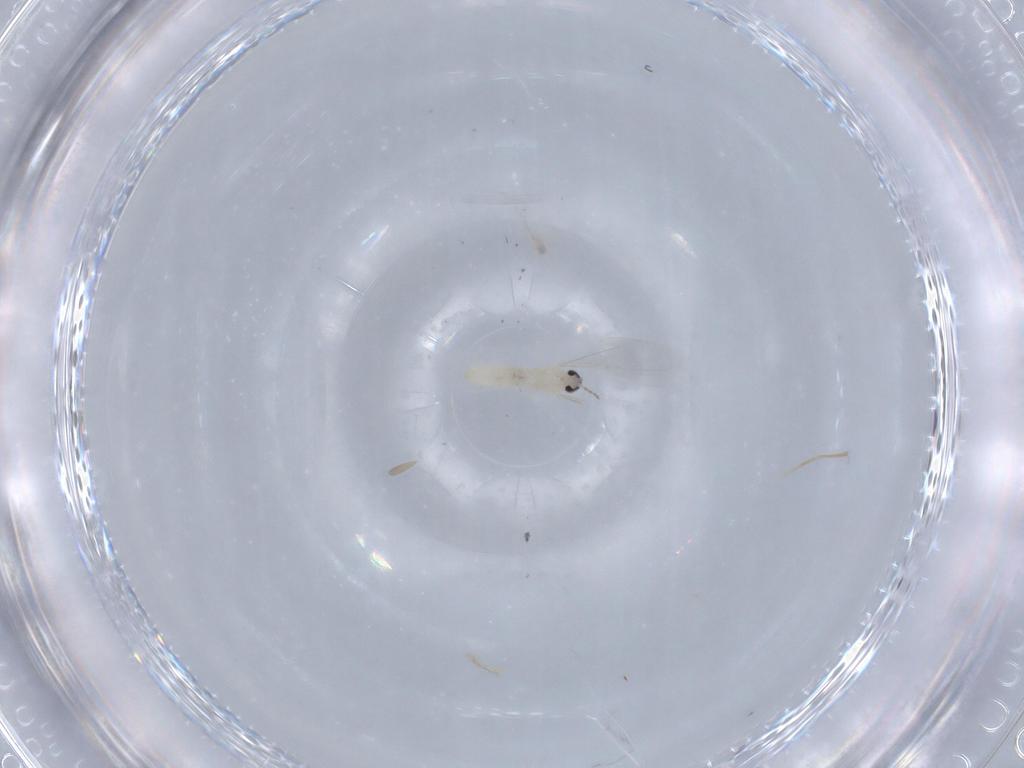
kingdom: Animalia
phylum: Arthropoda
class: Insecta
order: Diptera
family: Cecidomyiidae
